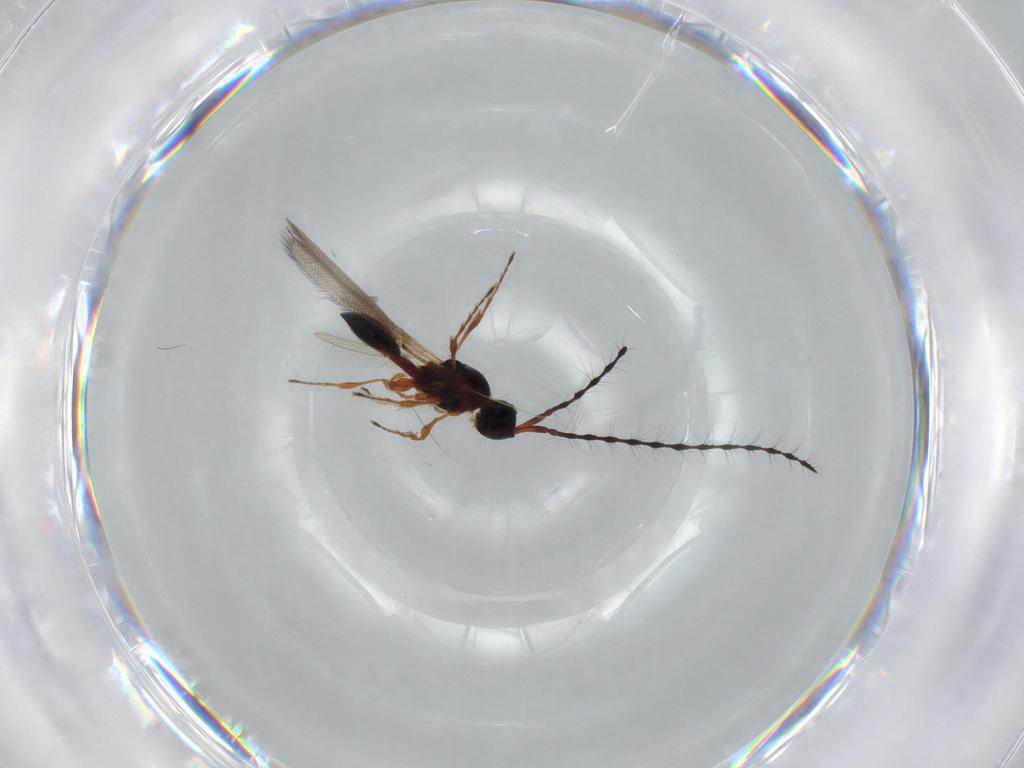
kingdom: Animalia
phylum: Arthropoda
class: Insecta
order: Hymenoptera
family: Diapriidae
